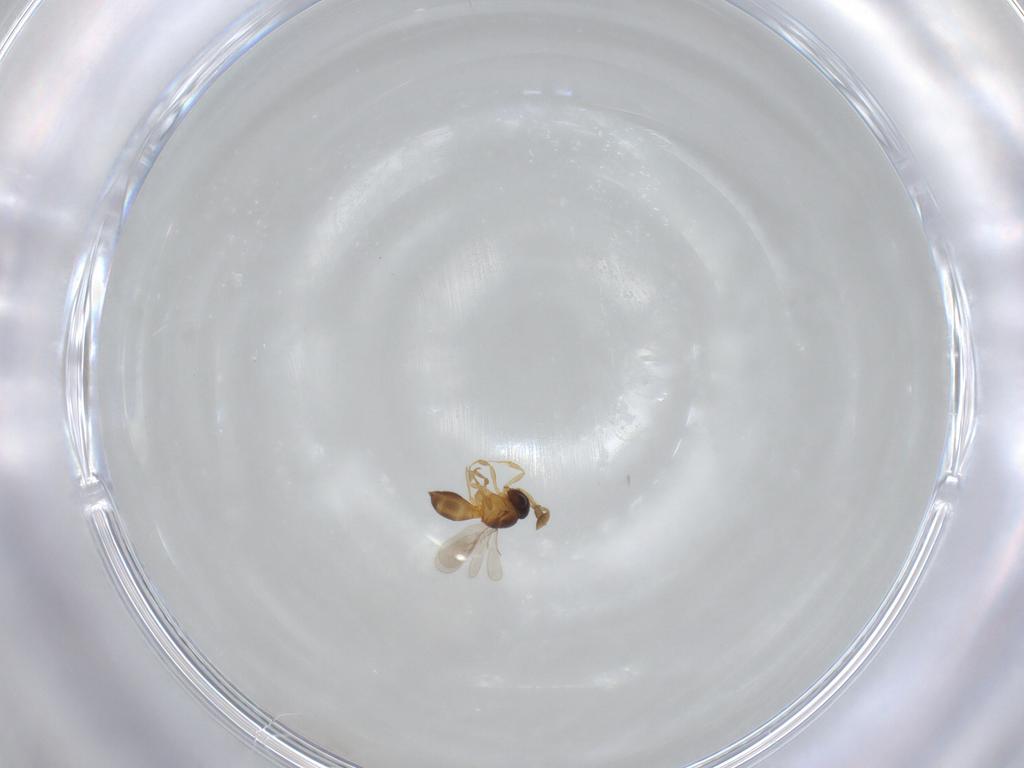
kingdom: Animalia
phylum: Arthropoda
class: Insecta
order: Hymenoptera
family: Scelionidae
